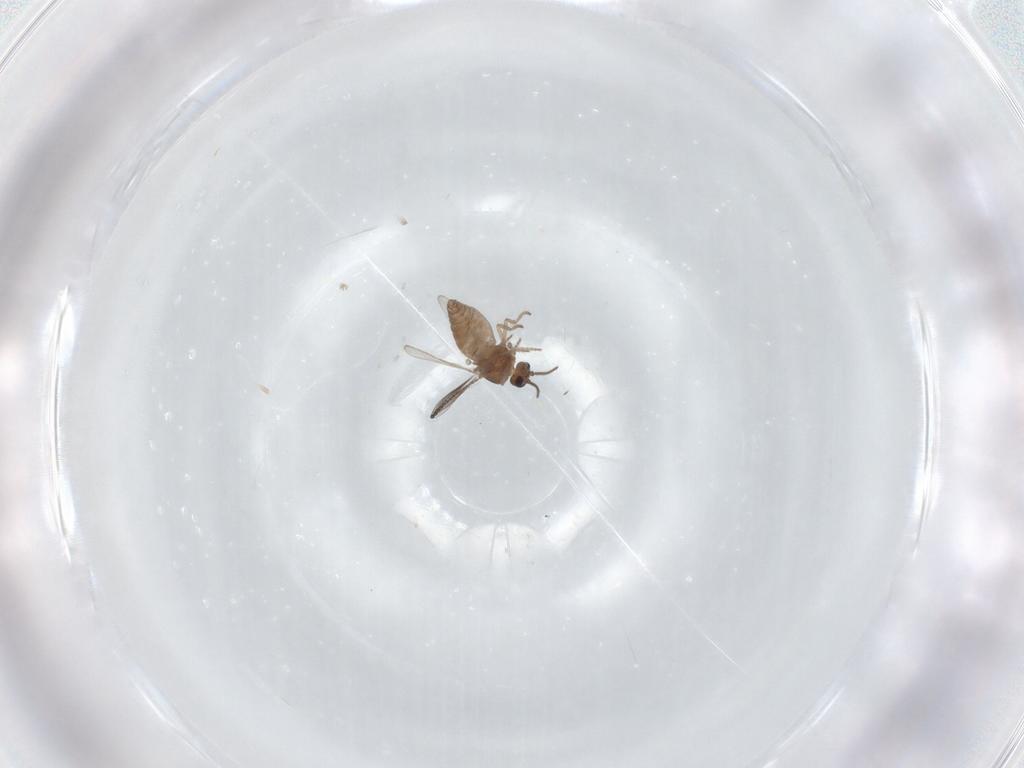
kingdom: Animalia
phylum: Arthropoda
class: Insecta
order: Diptera
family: Ceratopogonidae
